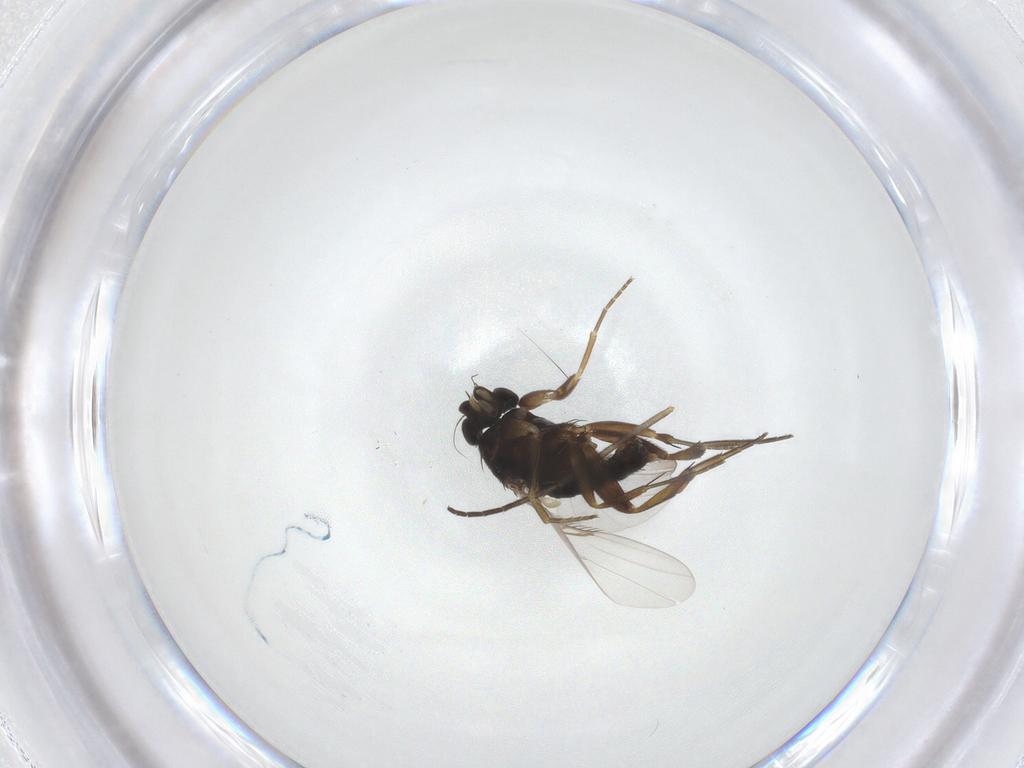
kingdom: Animalia
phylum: Arthropoda
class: Insecta
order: Diptera
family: Phoridae
